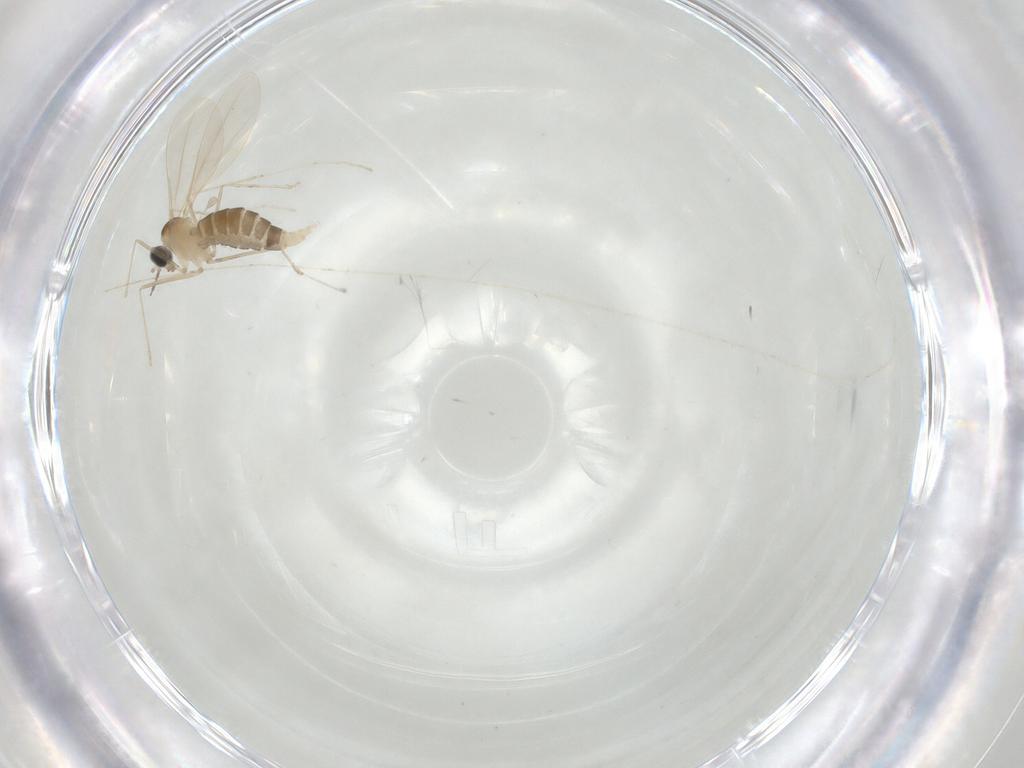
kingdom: Animalia
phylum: Arthropoda
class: Insecta
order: Diptera
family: Cecidomyiidae
